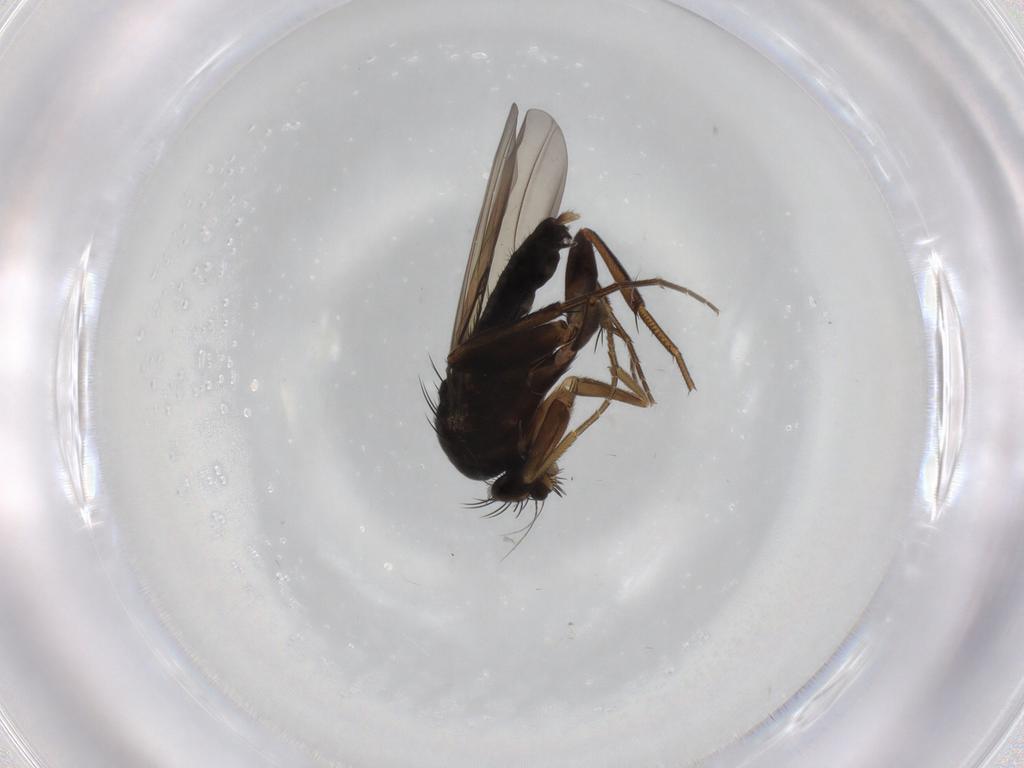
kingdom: Animalia
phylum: Arthropoda
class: Insecta
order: Diptera
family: Phoridae
